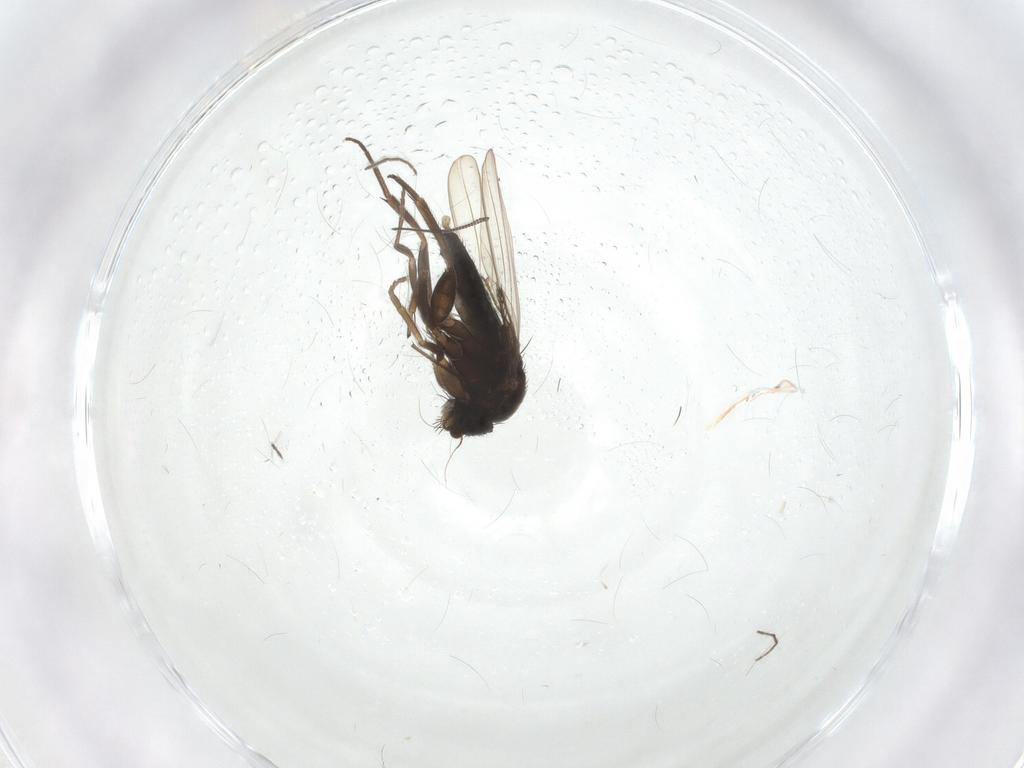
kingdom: Animalia
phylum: Arthropoda
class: Insecta
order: Diptera
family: Phoridae
